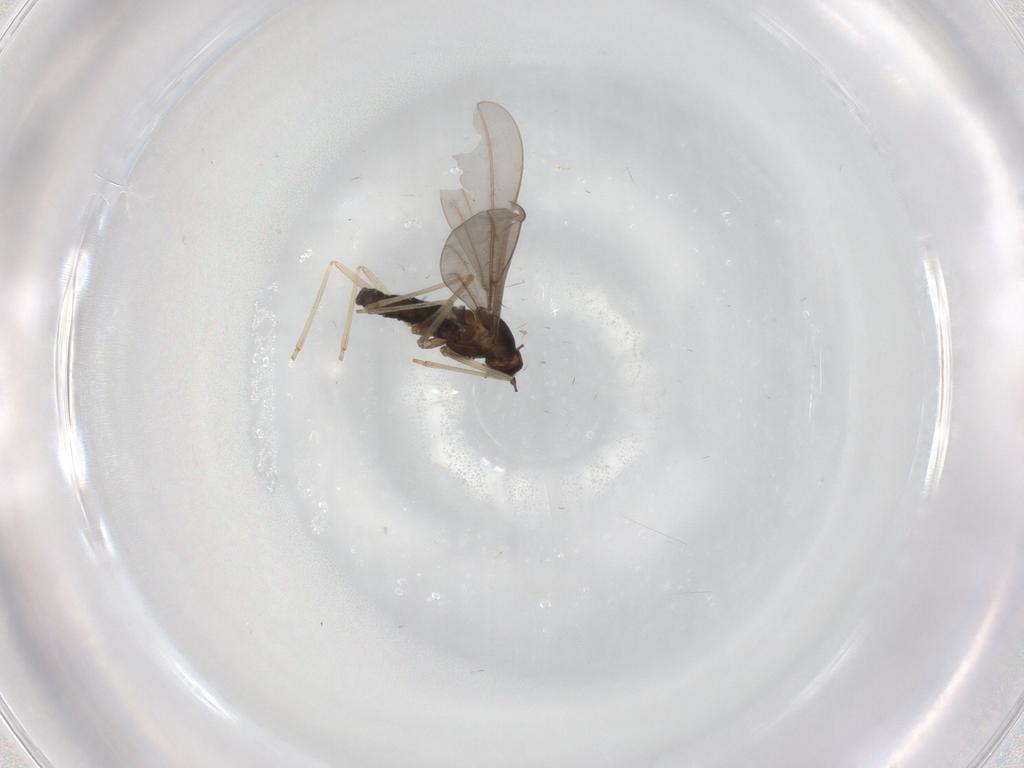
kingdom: Animalia
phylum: Arthropoda
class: Insecta
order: Diptera
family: Cecidomyiidae
